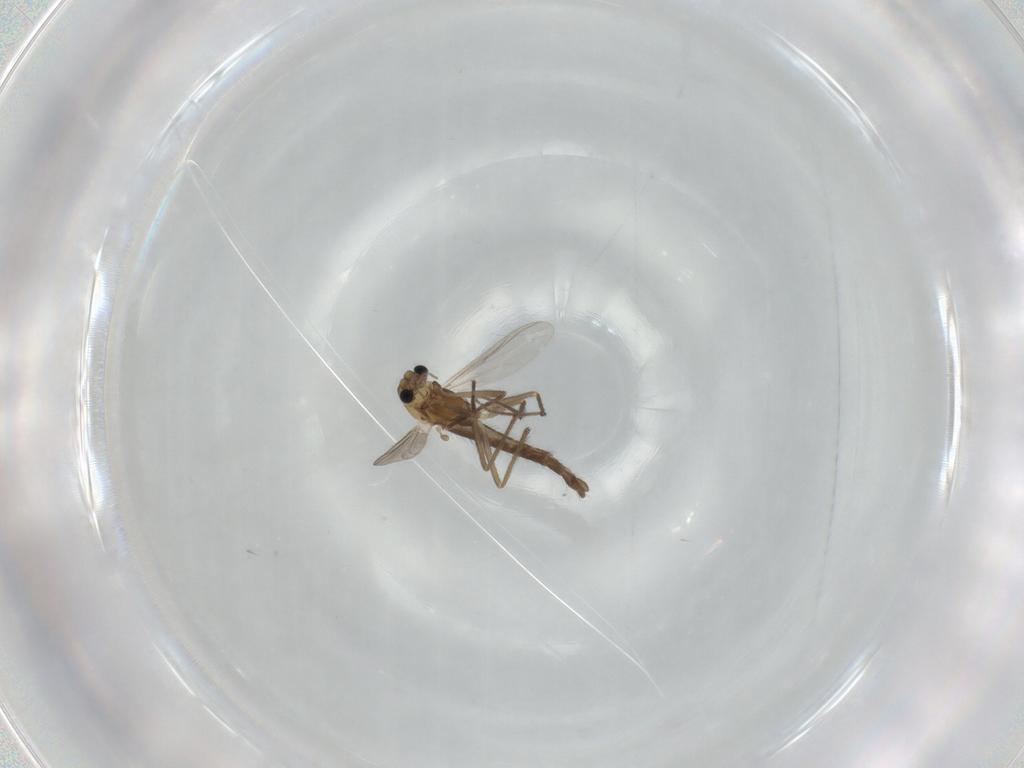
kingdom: Animalia
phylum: Arthropoda
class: Insecta
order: Diptera
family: Chironomidae
